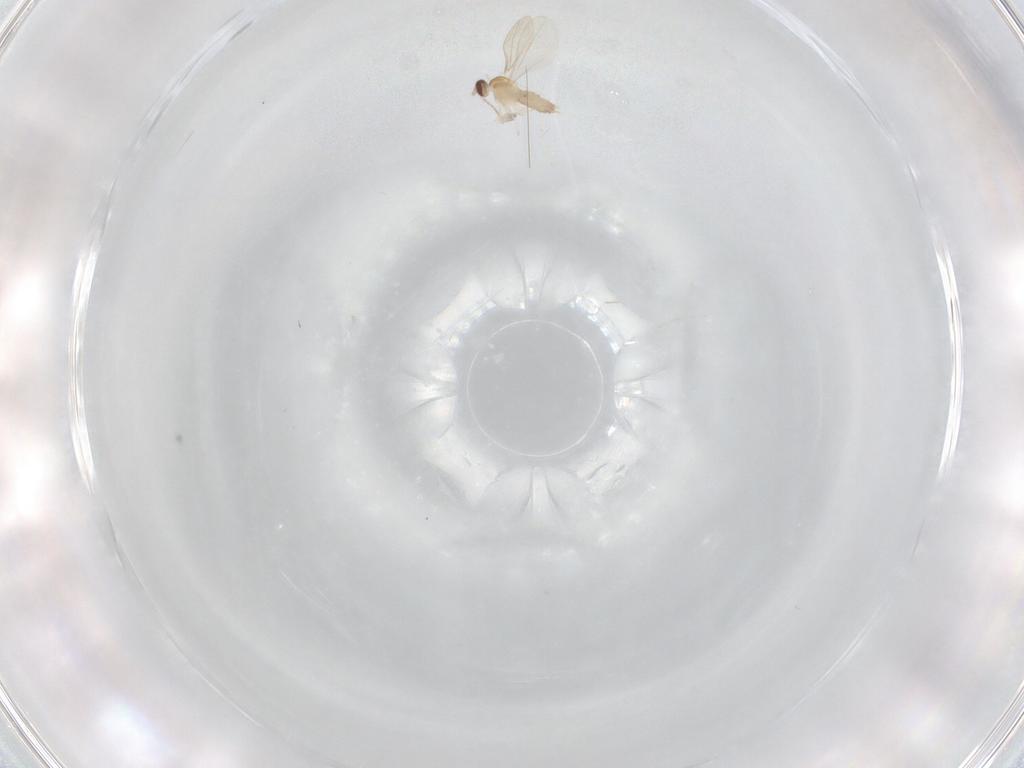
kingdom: Animalia
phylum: Arthropoda
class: Insecta
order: Diptera
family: Cecidomyiidae
